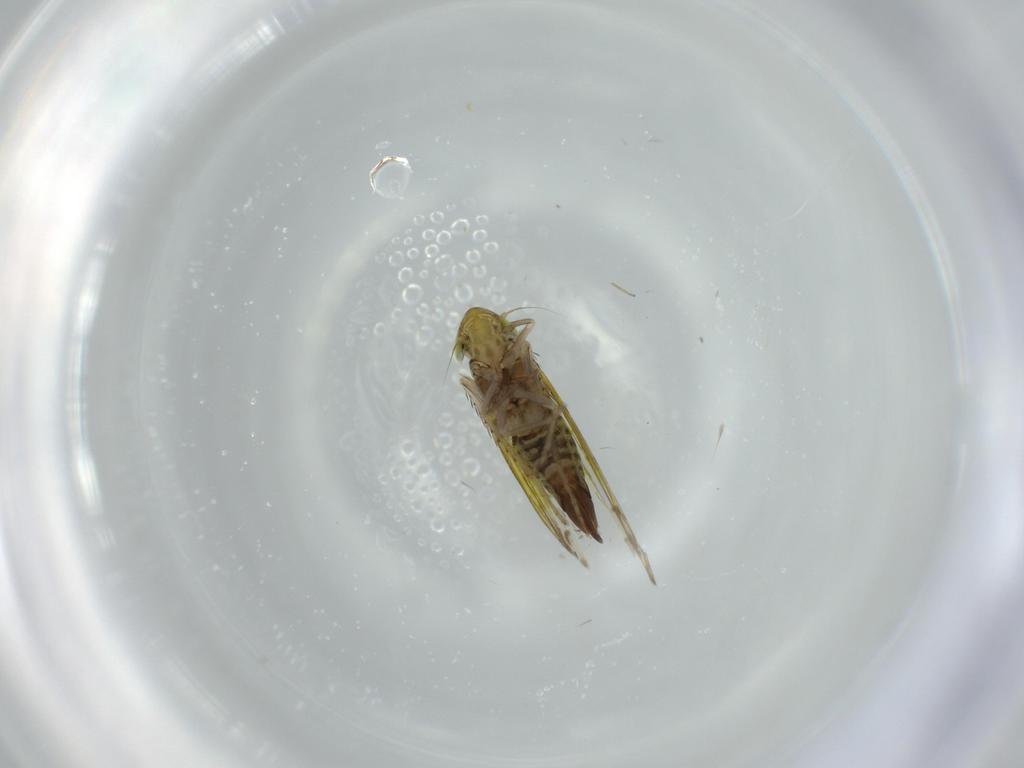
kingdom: Animalia
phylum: Arthropoda
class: Insecta
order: Hemiptera
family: Cicadellidae
